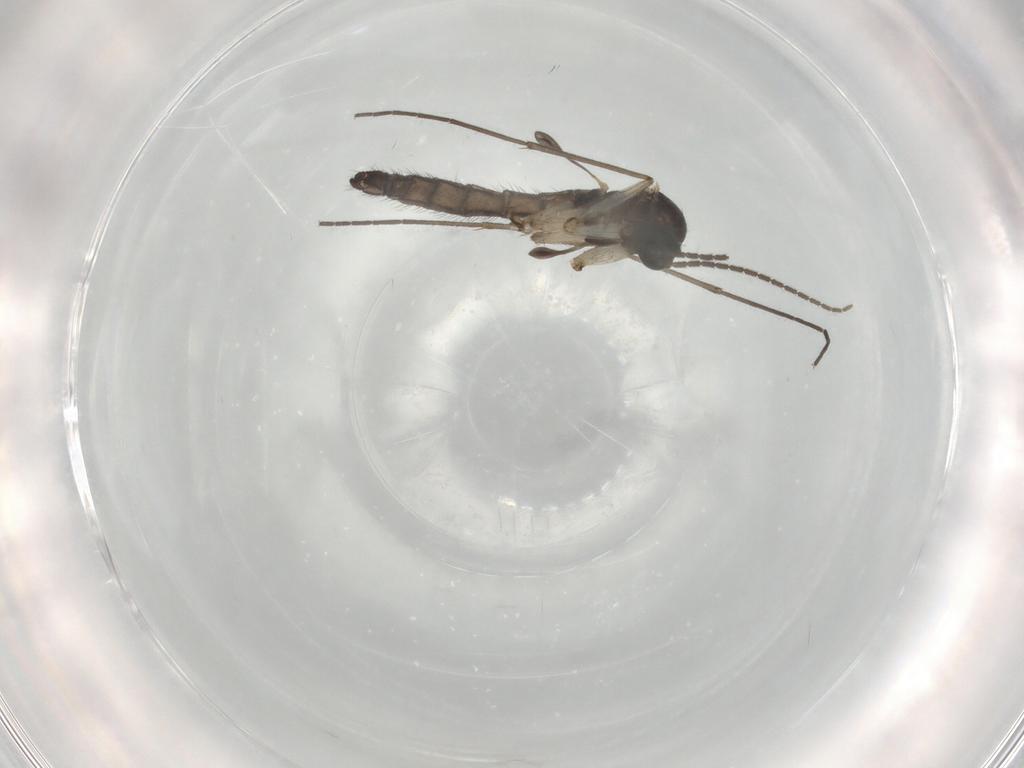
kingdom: Animalia
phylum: Arthropoda
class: Insecta
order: Diptera
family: Sciaridae
